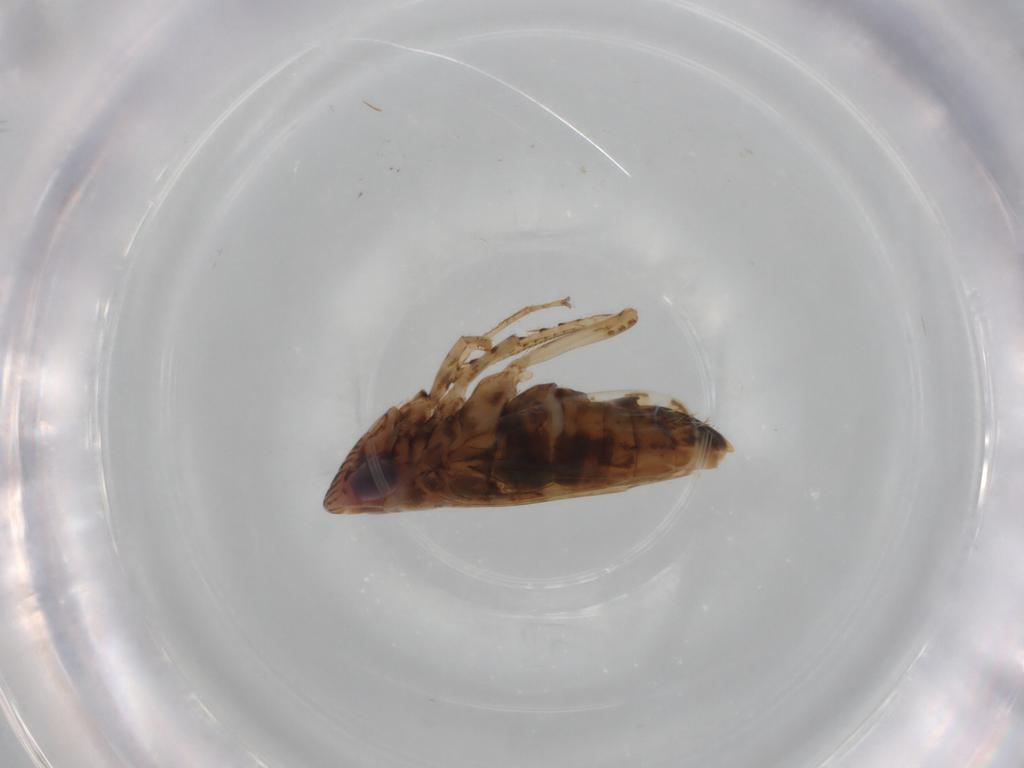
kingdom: Animalia
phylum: Arthropoda
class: Insecta
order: Hemiptera
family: Cicadellidae
